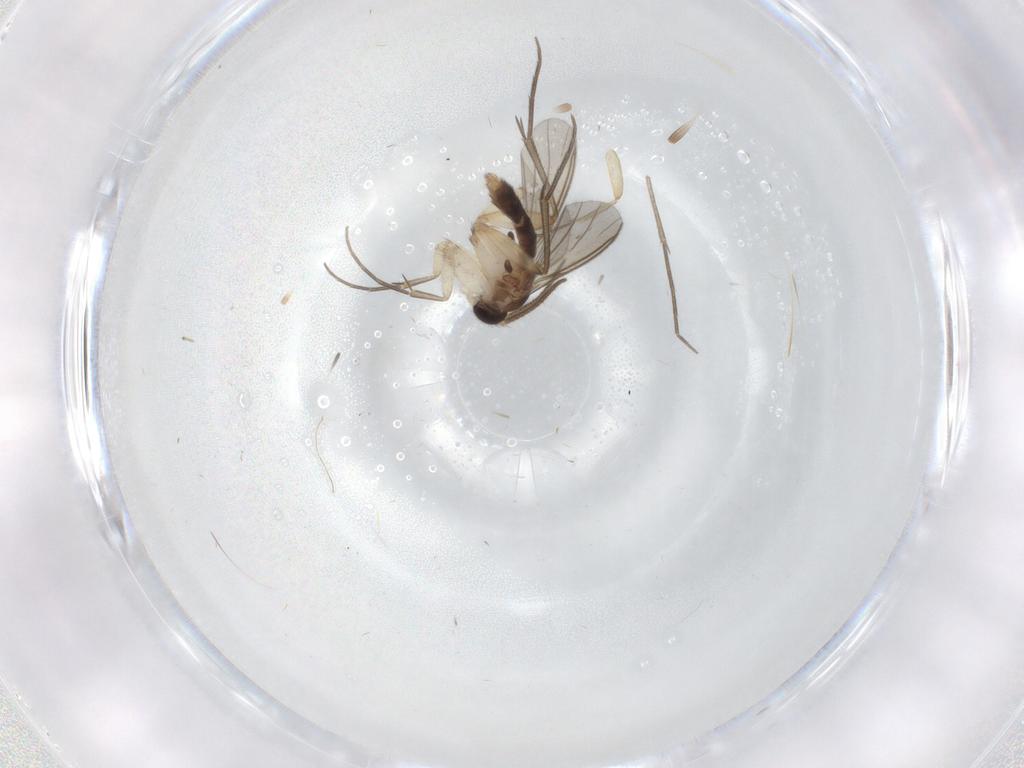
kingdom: Animalia
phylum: Arthropoda
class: Insecta
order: Diptera
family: Mycetophilidae
